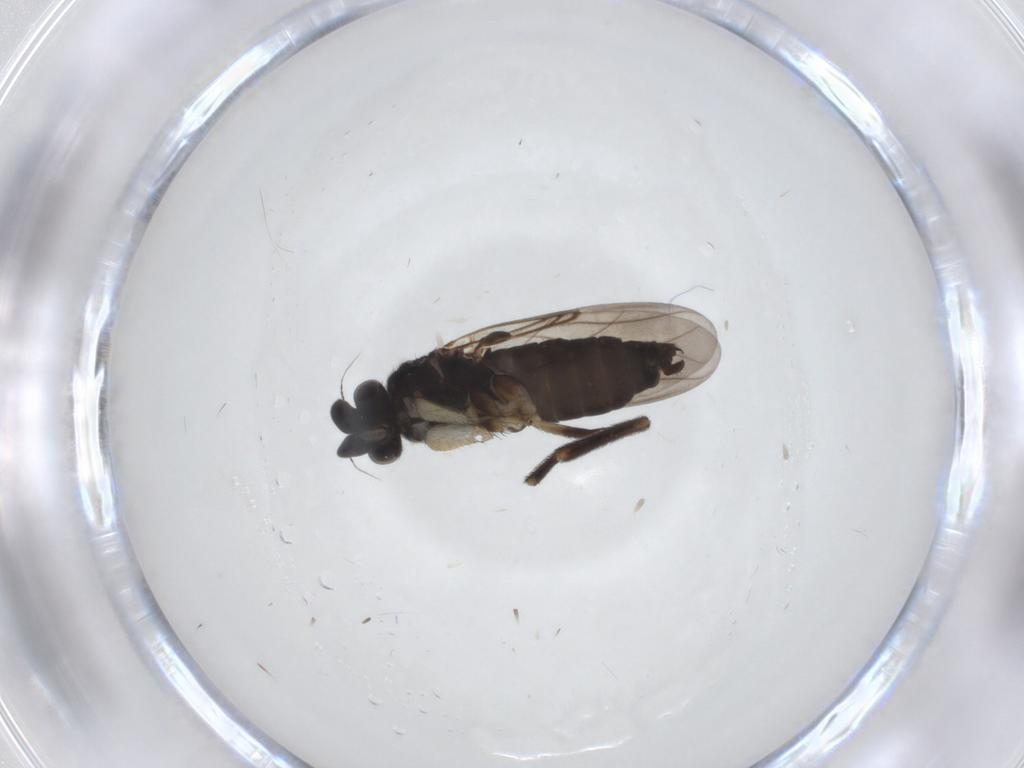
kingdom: Animalia
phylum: Arthropoda
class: Insecta
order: Diptera
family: Phoridae
